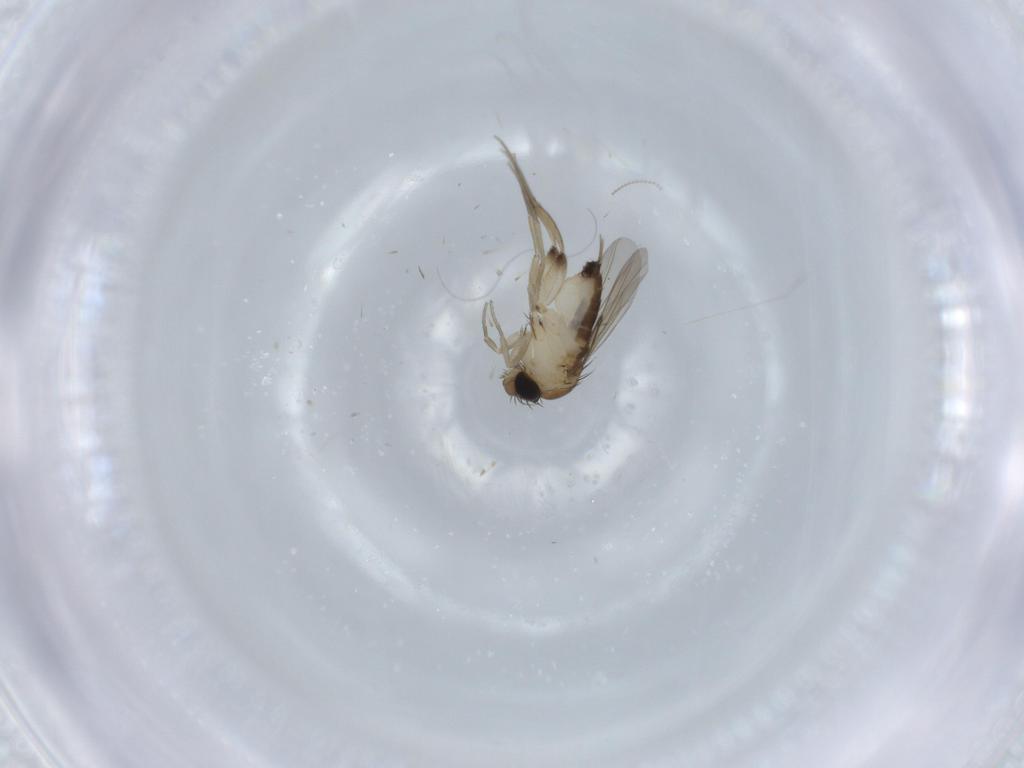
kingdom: Animalia
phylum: Arthropoda
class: Insecta
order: Diptera
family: Phoridae
